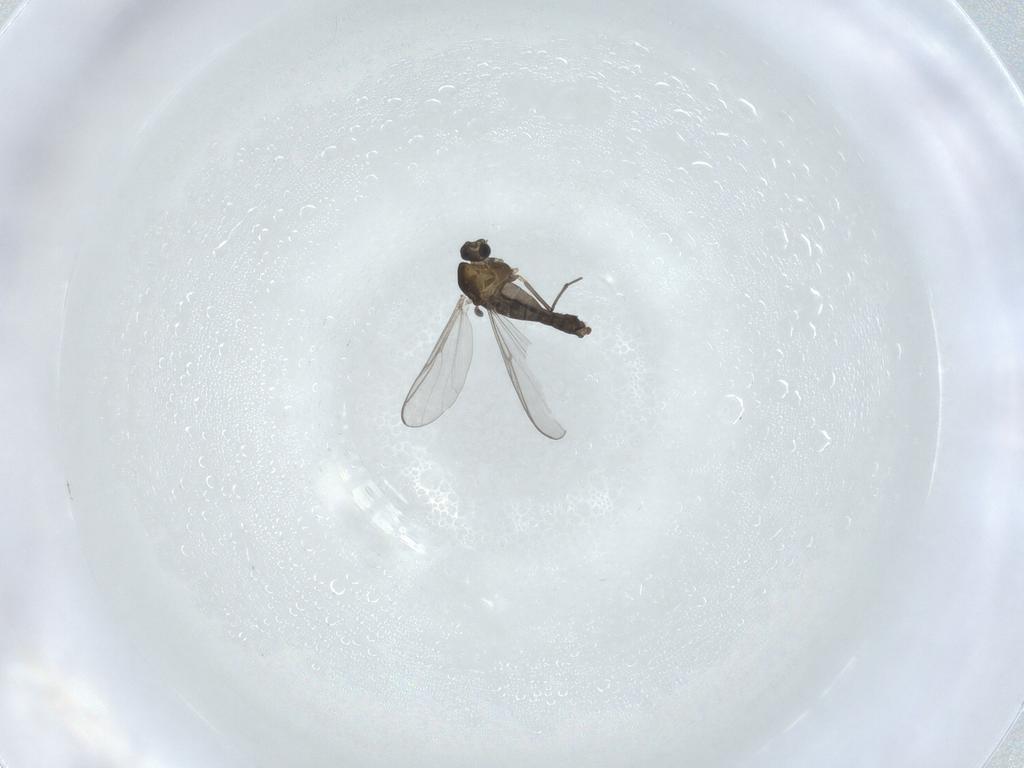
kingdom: Animalia
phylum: Arthropoda
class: Insecta
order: Diptera
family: Chironomidae
